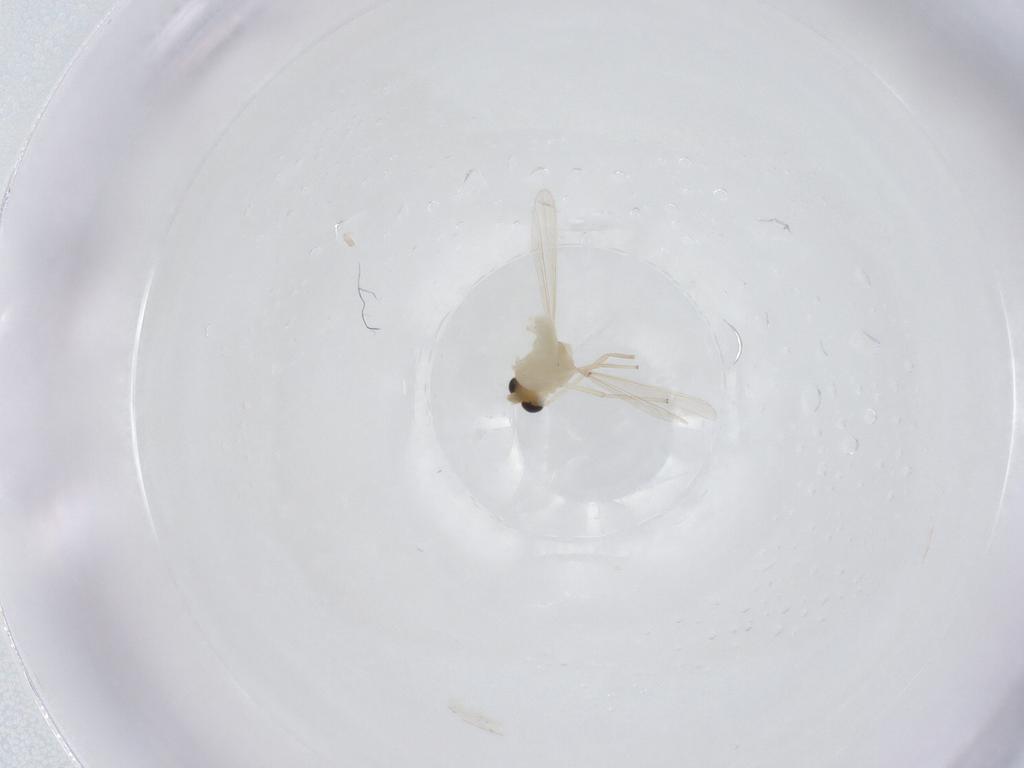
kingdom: Animalia
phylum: Arthropoda
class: Insecta
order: Diptera
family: Chironomidae
